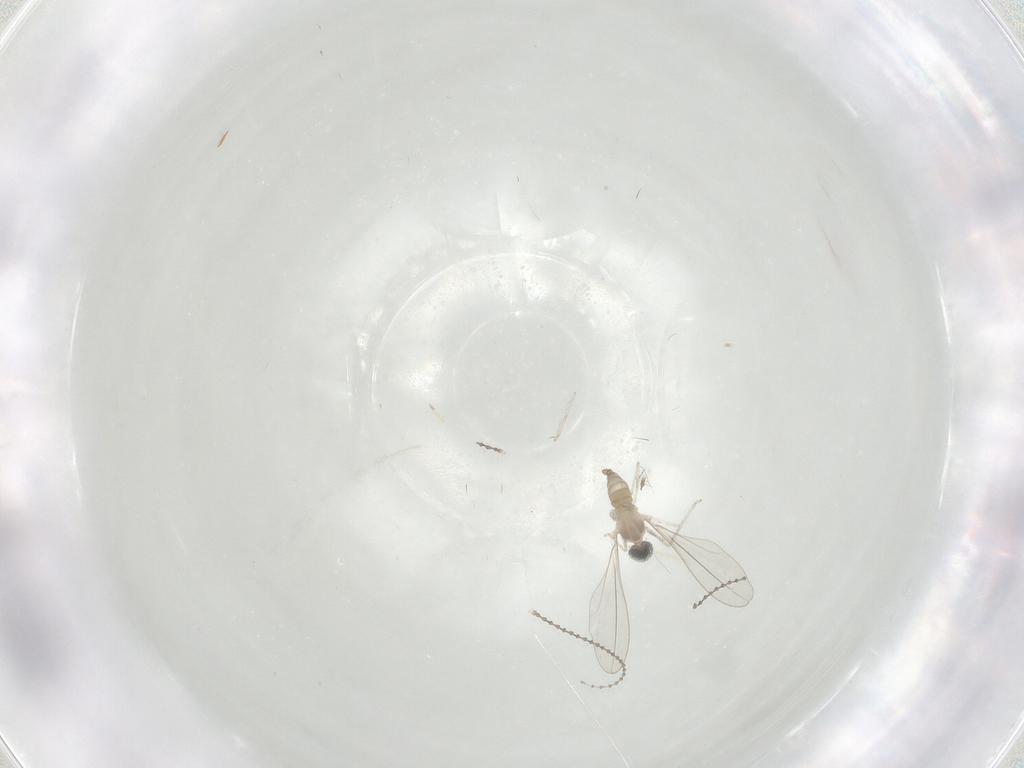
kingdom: Animalia
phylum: Arthropoda
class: Insecta
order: Diptera
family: Cecidomyiidae
